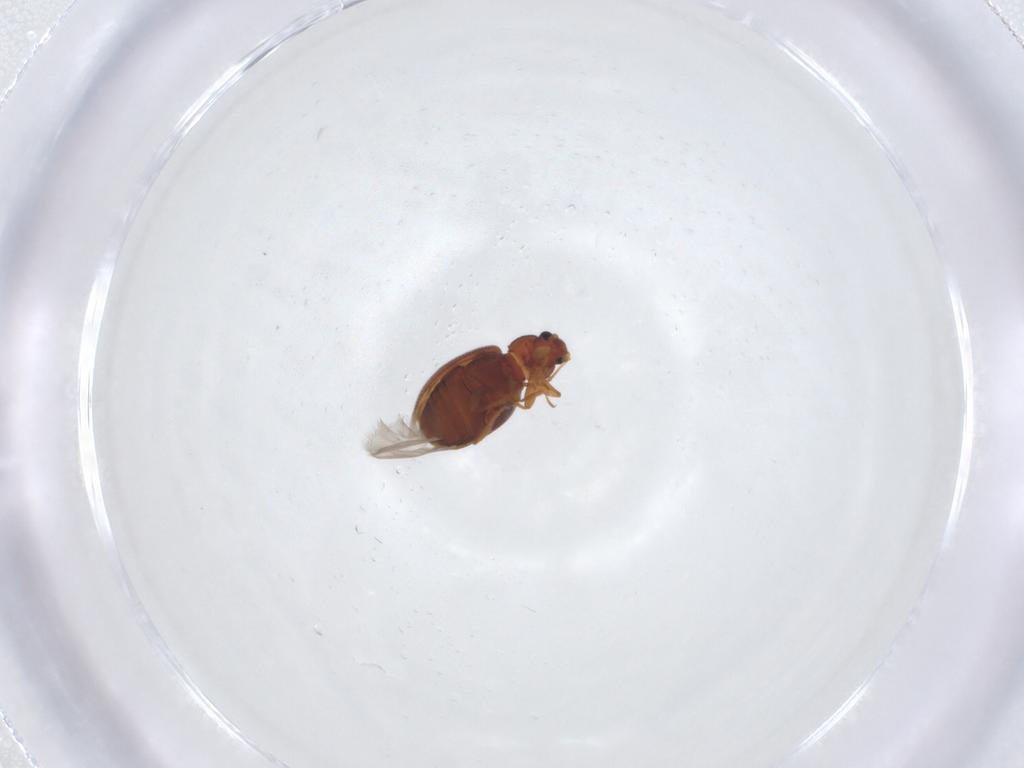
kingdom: Animalia
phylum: Arthropoda
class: Insecta
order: Coleoptera
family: Latridiidae
